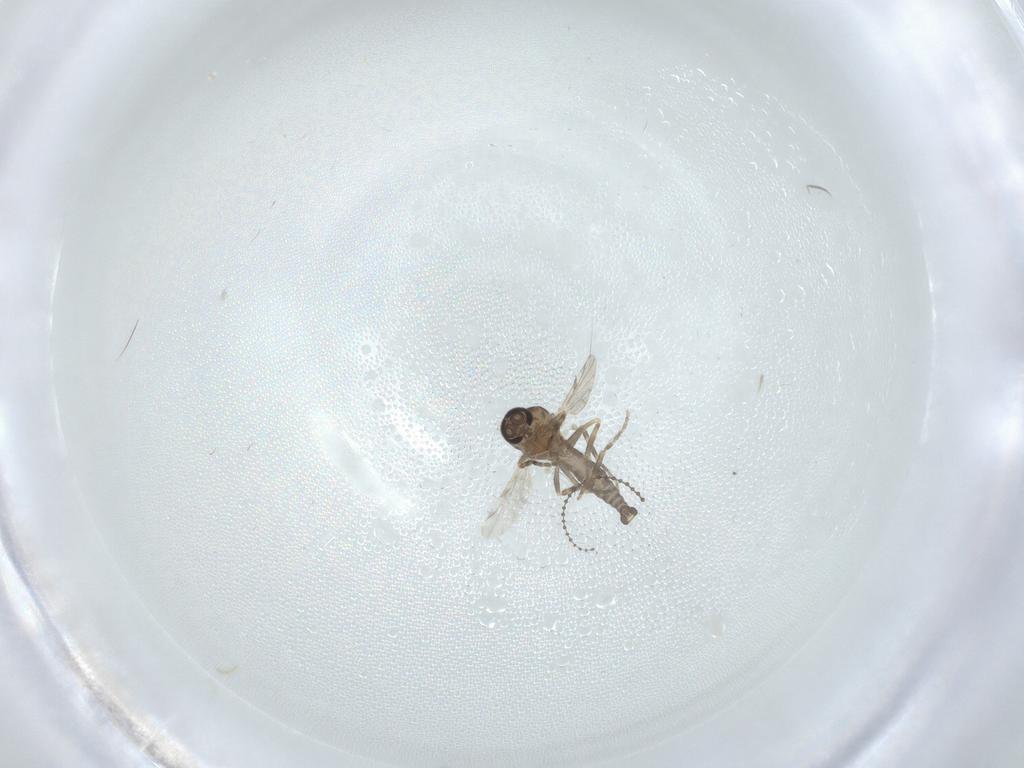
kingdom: Animalia
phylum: Arthropoda
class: Insecta
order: Diptera
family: Ceratopogonidae
